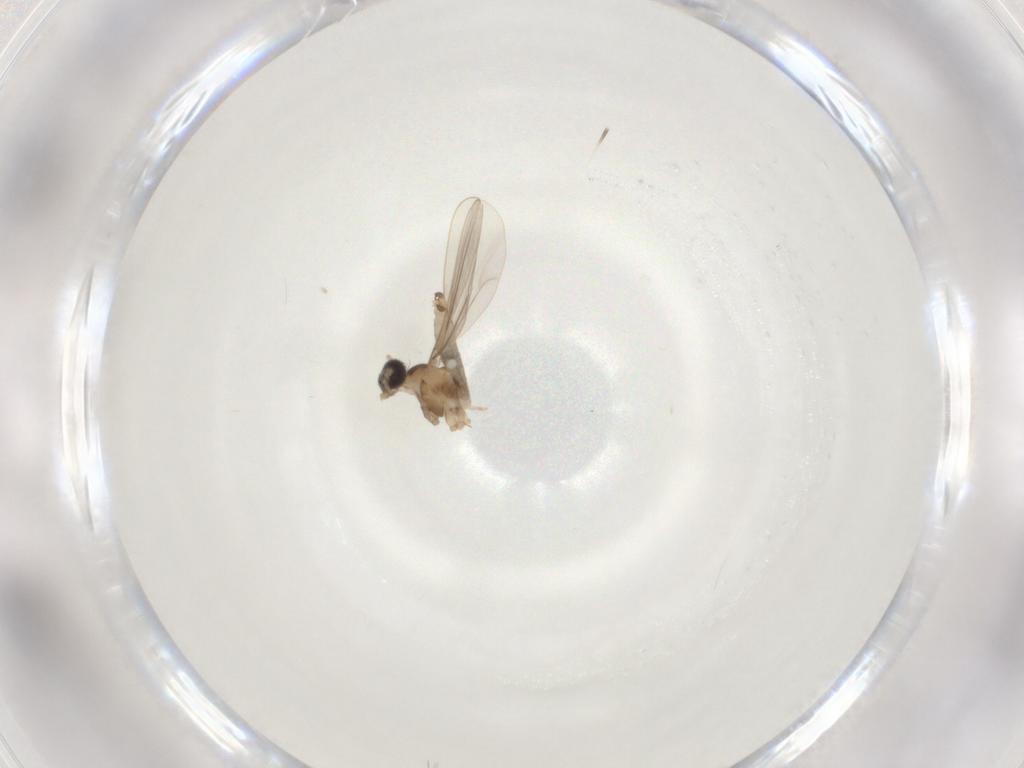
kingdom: Animalia
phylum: Arthropoda
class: Insecta
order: Diptera
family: Cecidomyiidae
